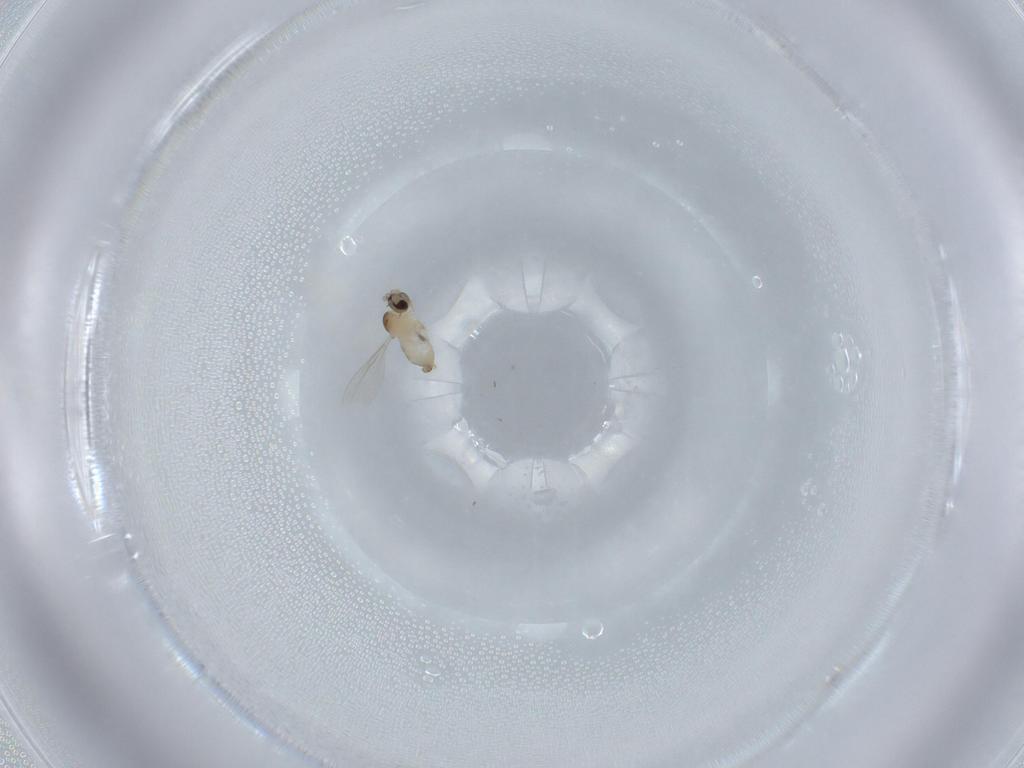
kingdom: Animalia
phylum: Arthropoda
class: Insecta
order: Diptera
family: Cecidomyiidae
